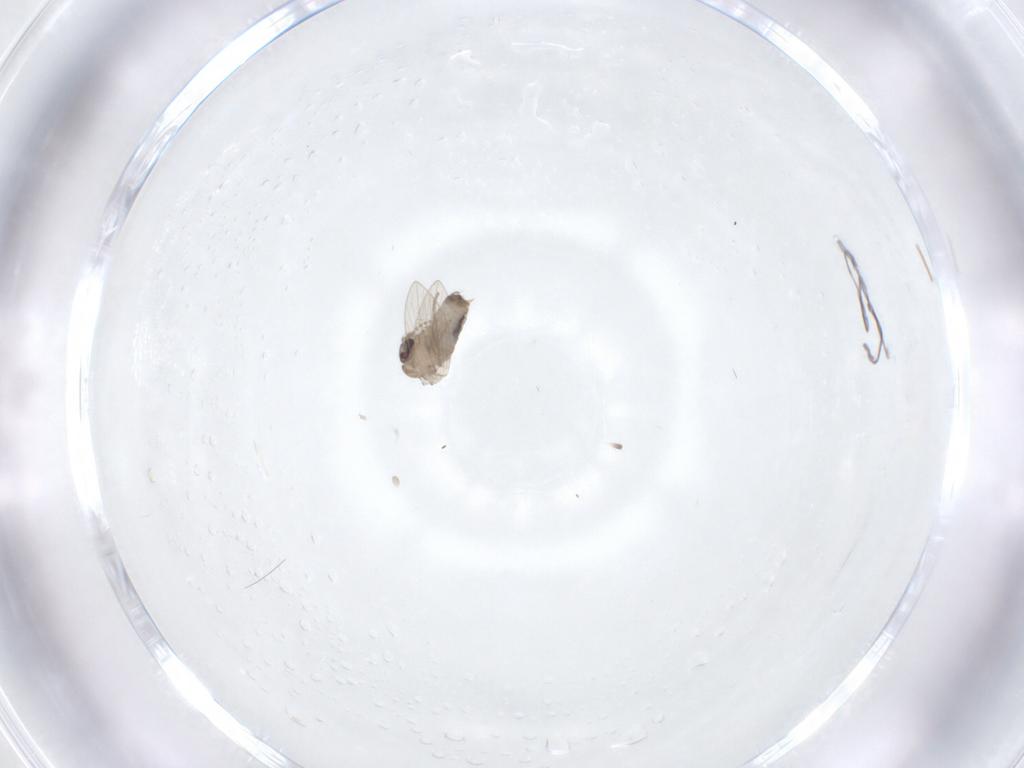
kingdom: Animalia
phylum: Arthropoda
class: Insecta
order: Diptera
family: Psychodidae
